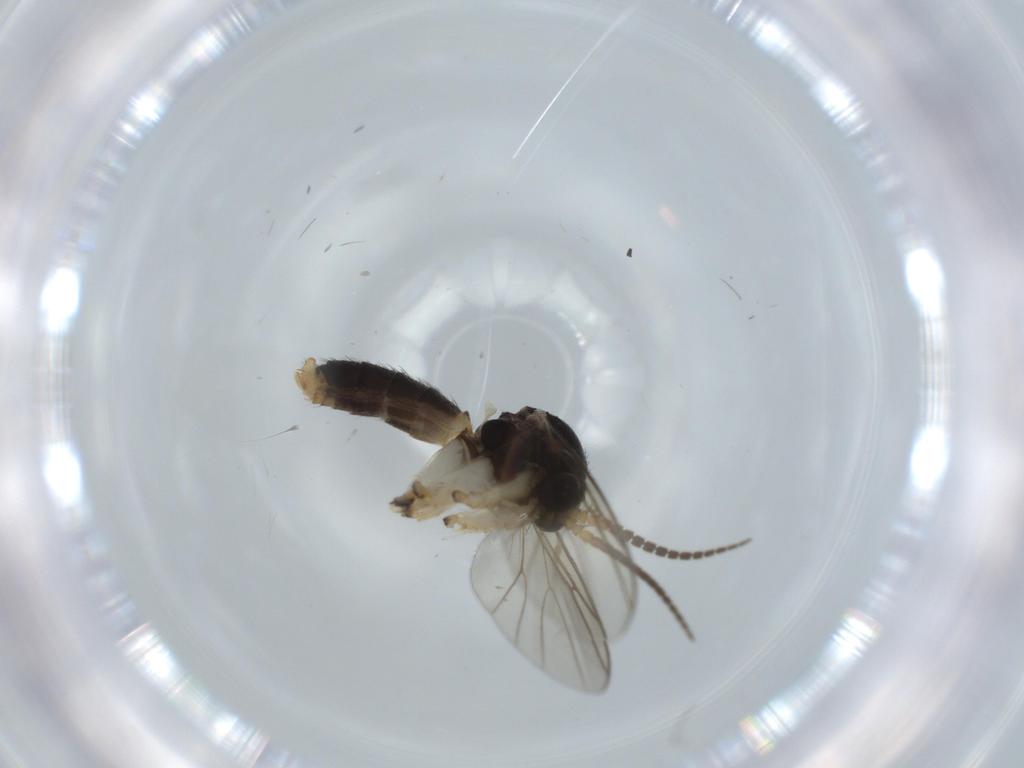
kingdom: Animalia
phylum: Arthropoda
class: Insecta
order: Diptera
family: Mycetophilidae
